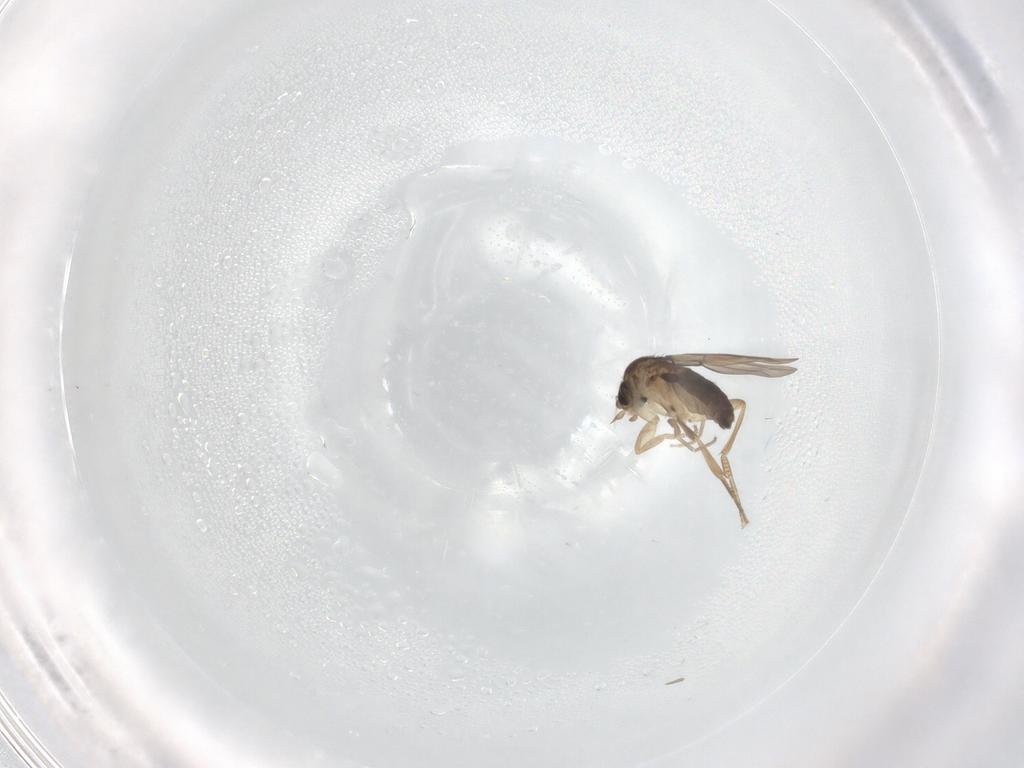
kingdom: Animalia
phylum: Arthropoda
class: Insecta
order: Diptera
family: Phoridae
